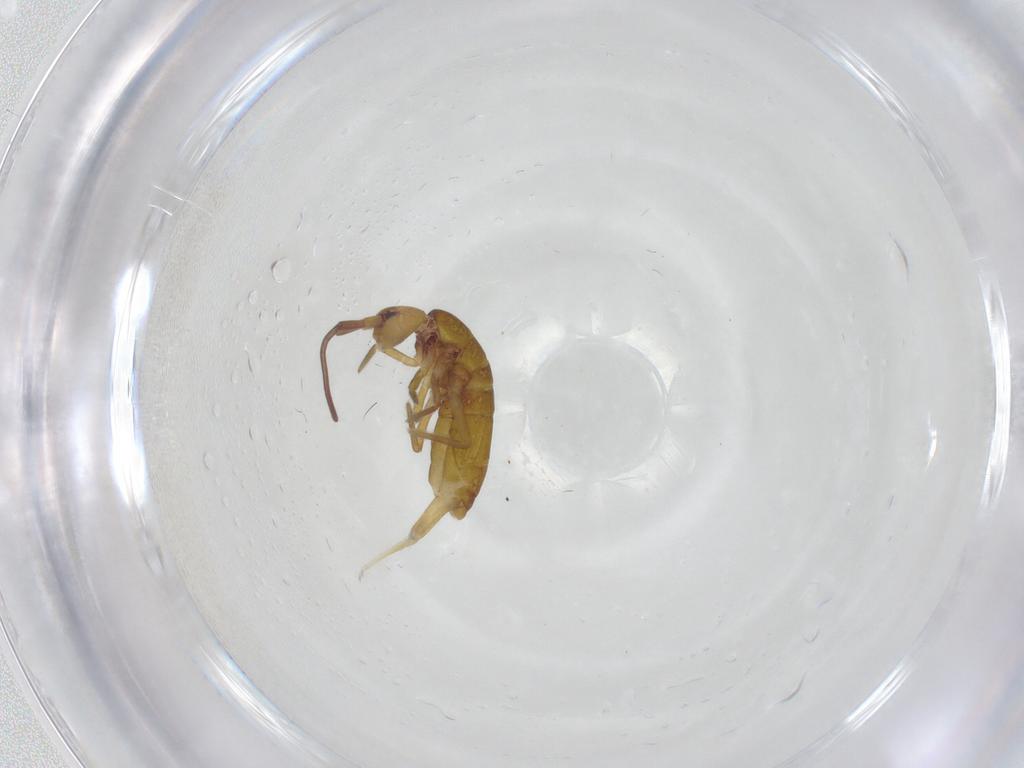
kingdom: Animalia
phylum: Arthropoda
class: Collembola
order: Entomobryomorpha
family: Tomoceridae
